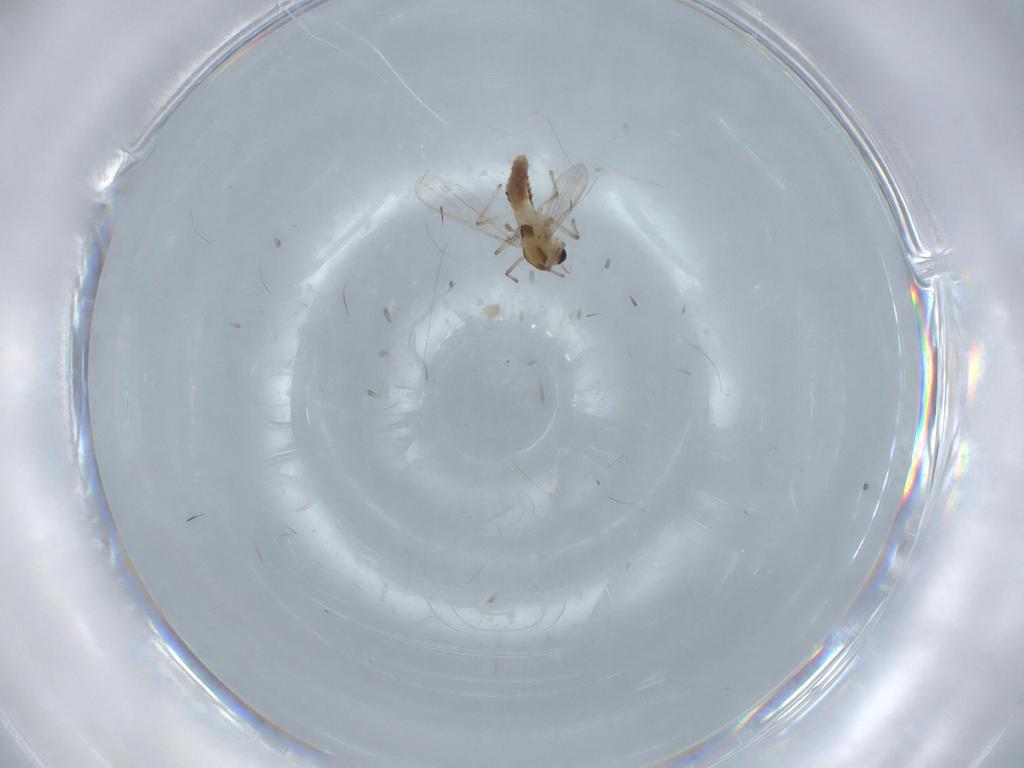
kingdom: Animalia
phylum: Arthropoda
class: Insecta
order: Diptera
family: Chironomidae
